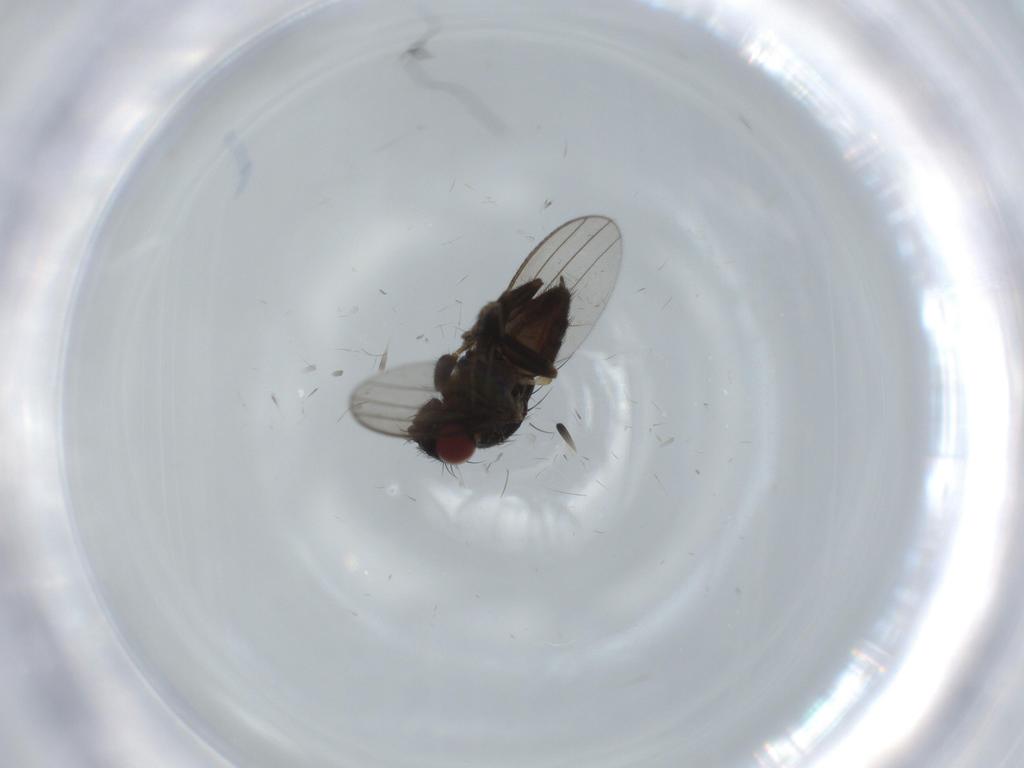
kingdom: Animalia
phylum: Arthropoda
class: Insecta
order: Diptera
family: Milichiidae
